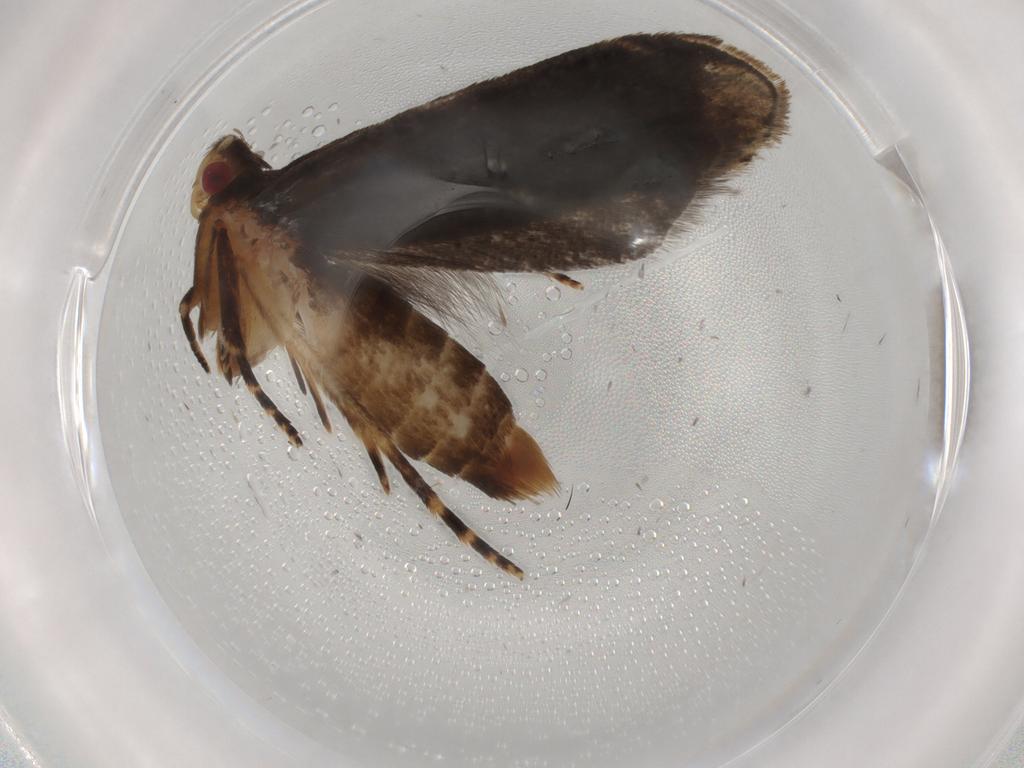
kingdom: Animalia
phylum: Arthropoda
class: Insecta
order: Lepidoptera
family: Gelechiidae
